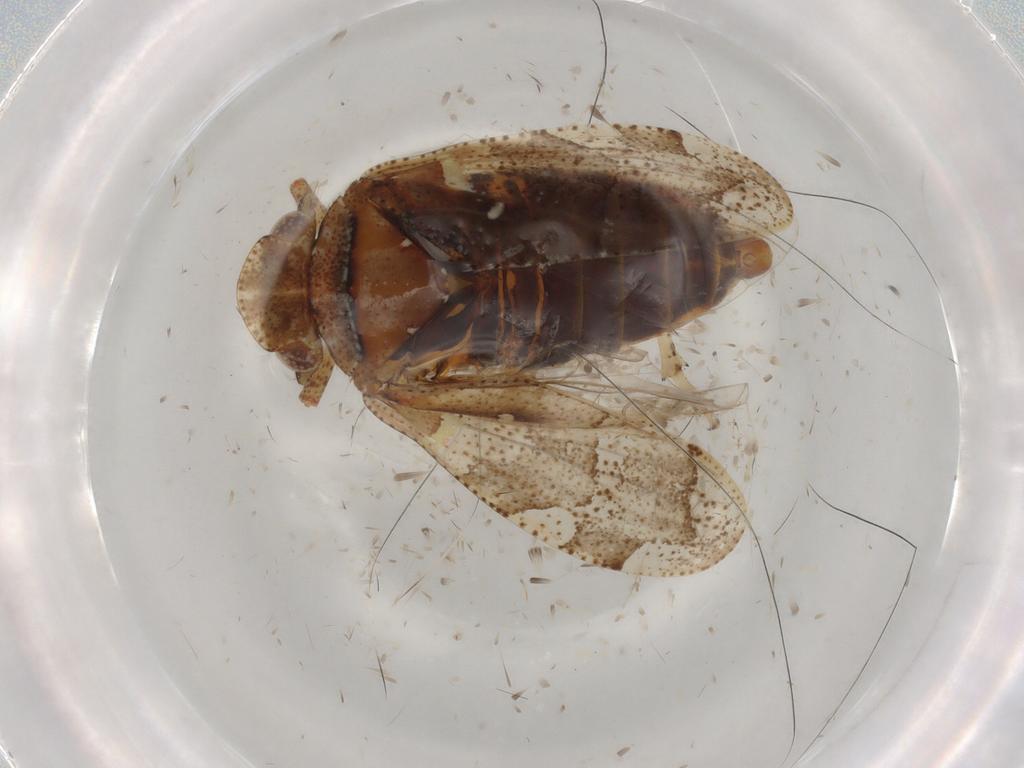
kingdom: Animalia
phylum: Arthropoda
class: Insecta
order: Hemiptera
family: Tettigometridae
